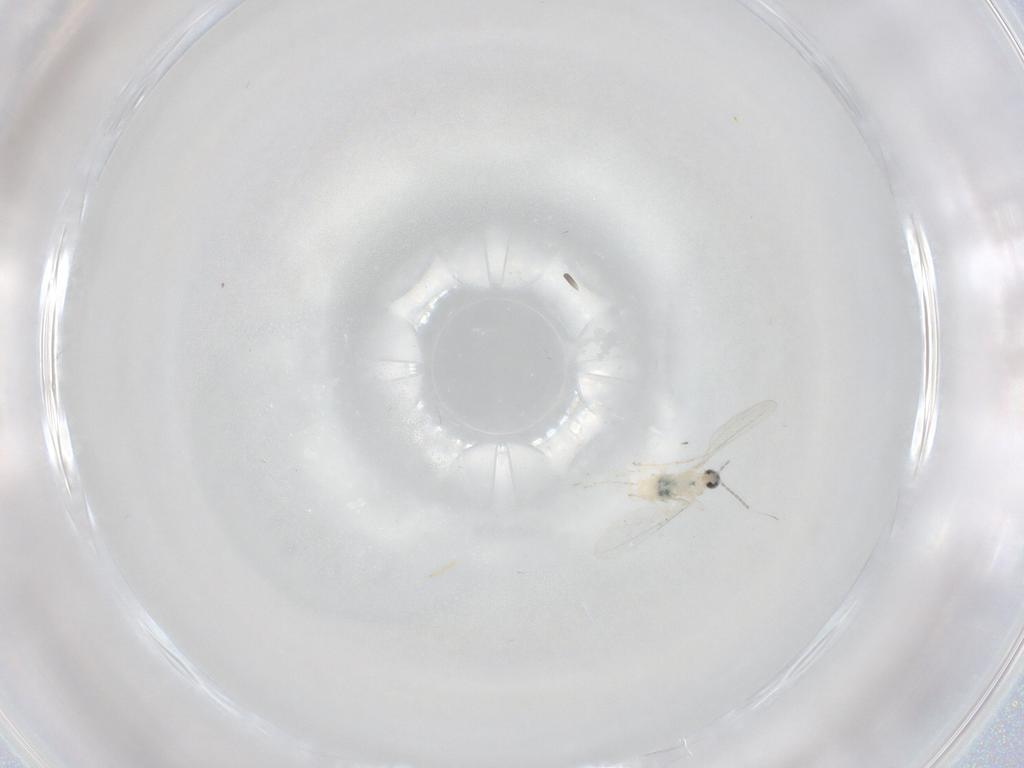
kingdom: Animalia
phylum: Arthropoda
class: Insecta
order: Diptera
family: Cecidomyiidae
